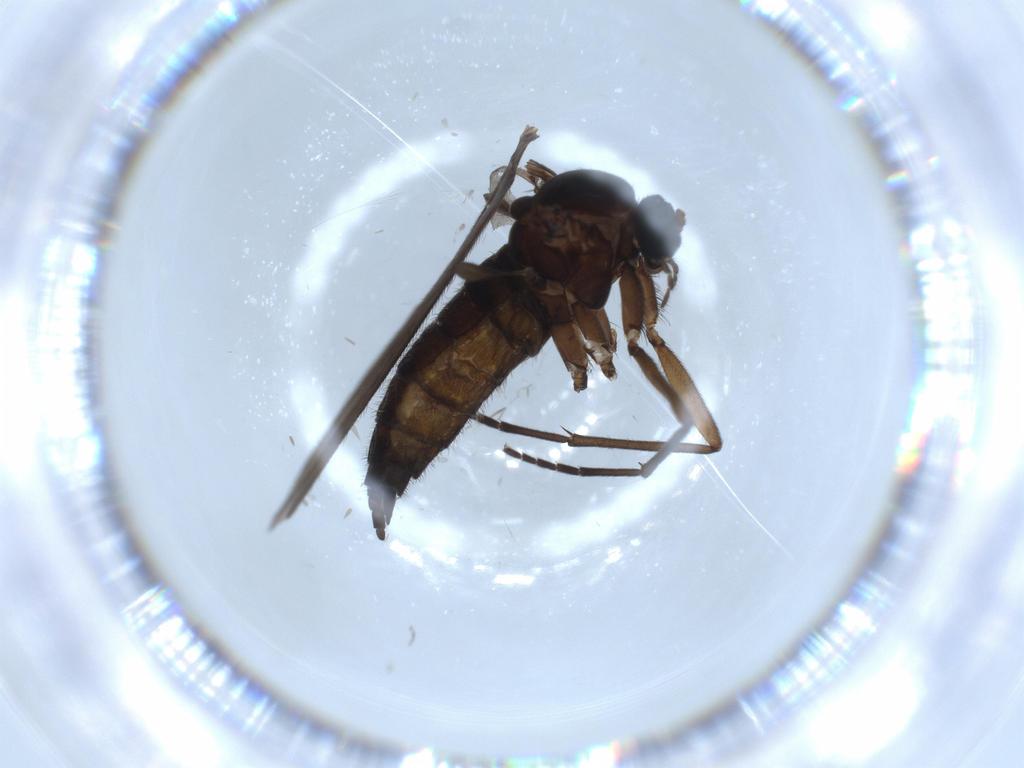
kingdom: Animalia
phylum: Arthropoda
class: Insecta
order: Diptera
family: Sciaridae
